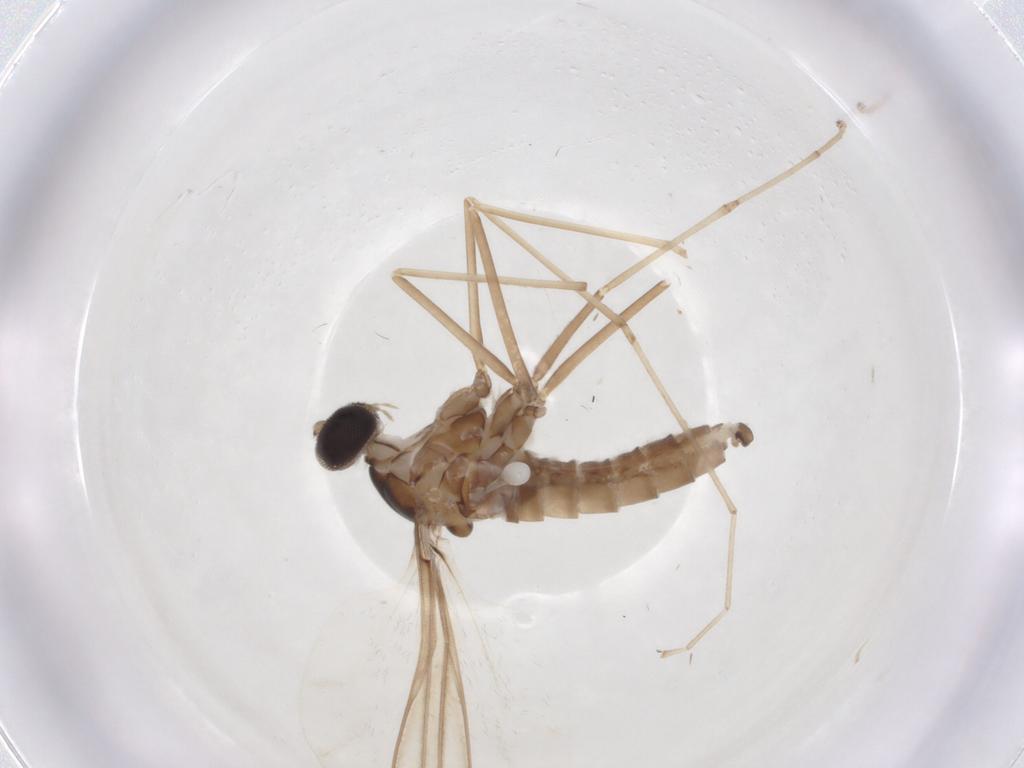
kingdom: Animalia
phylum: Arthropoda
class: Insecta
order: Diptera
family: Cecidomyiidae
